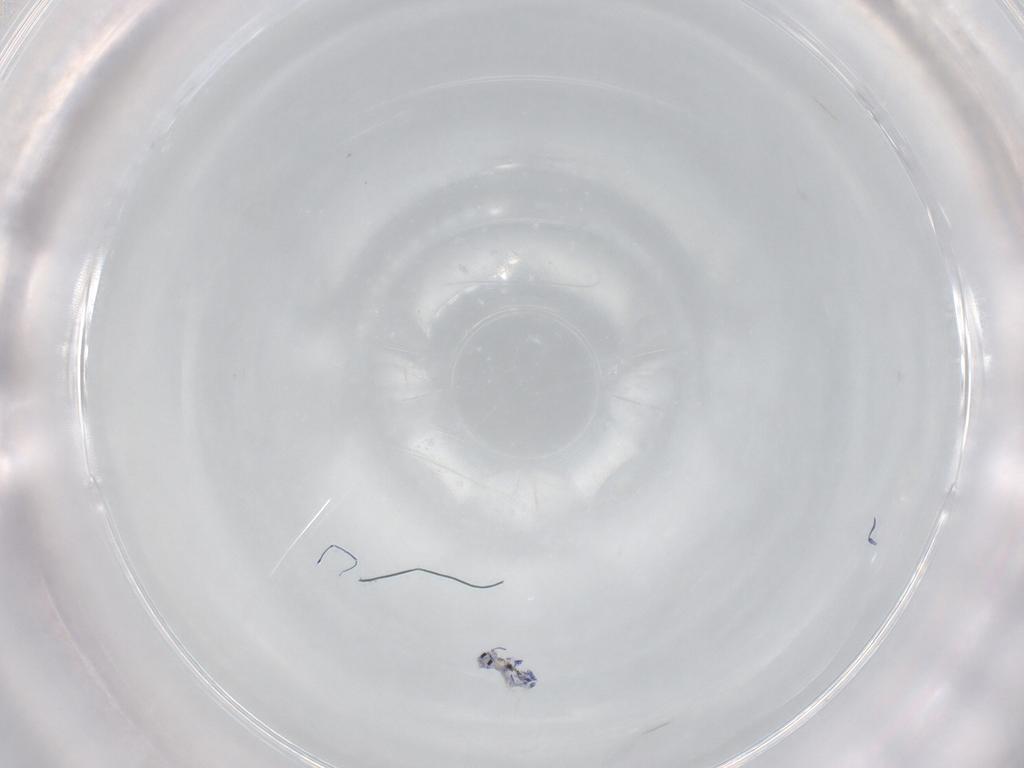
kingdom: Animalia
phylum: Arthropoda
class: Collembola
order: Entomobryomorpha
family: Entomobryidae
